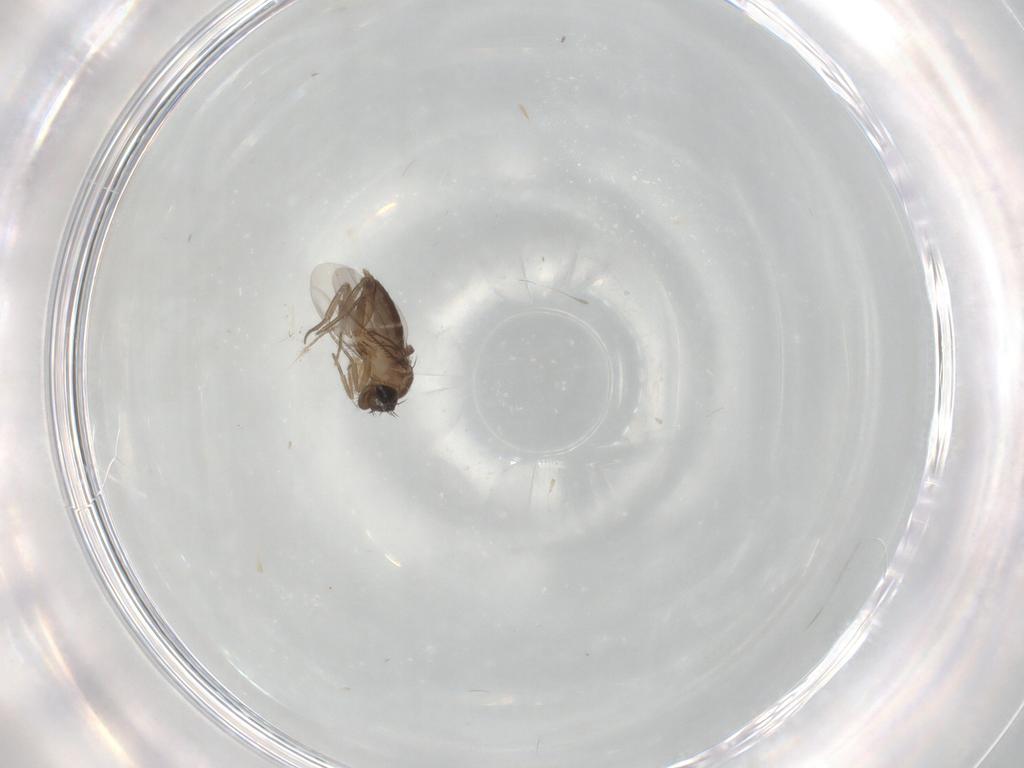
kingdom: Animalia
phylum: Arthropoda
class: Insecta
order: Diptera
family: Phoridae
